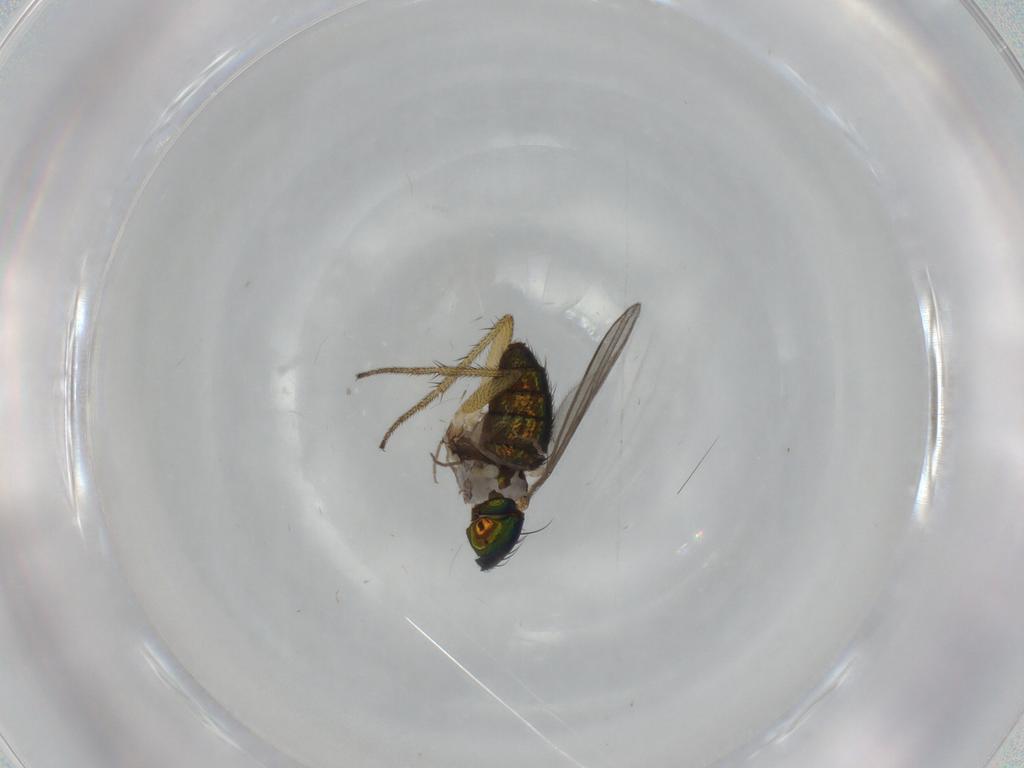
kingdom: Animalia
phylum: Arthropoda
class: Insecta
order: Diptera
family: Dolichopodidae
